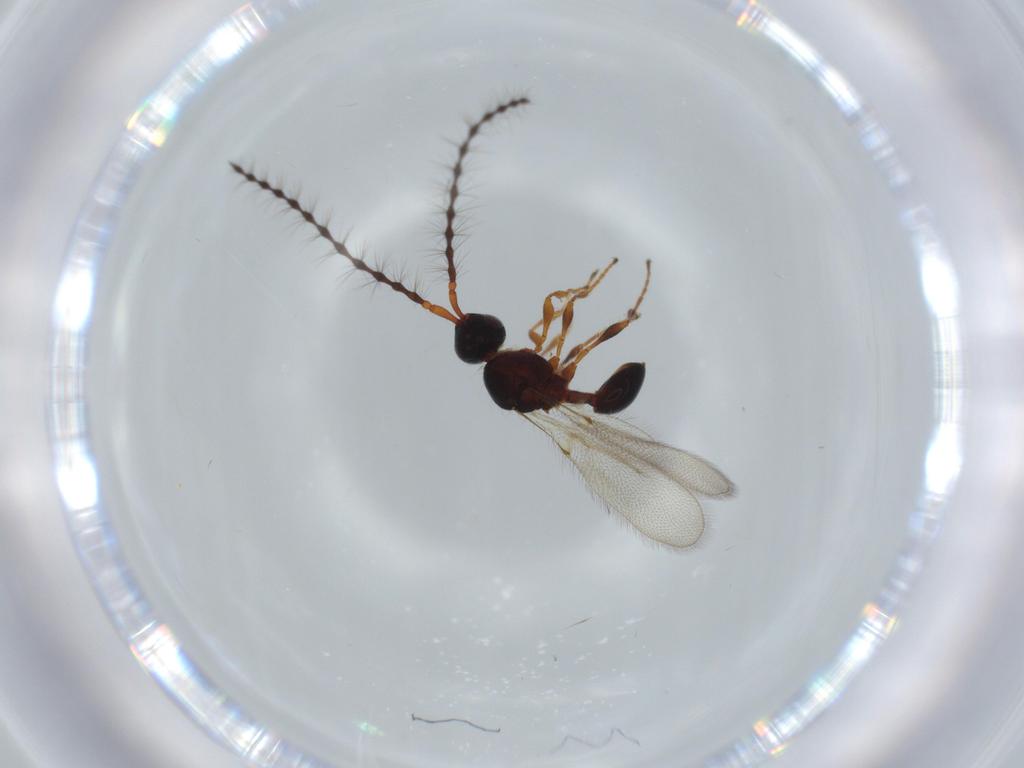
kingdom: Animalia
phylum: Arthropoda
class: Insecta
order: Hymenoptera
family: Diapriidae
